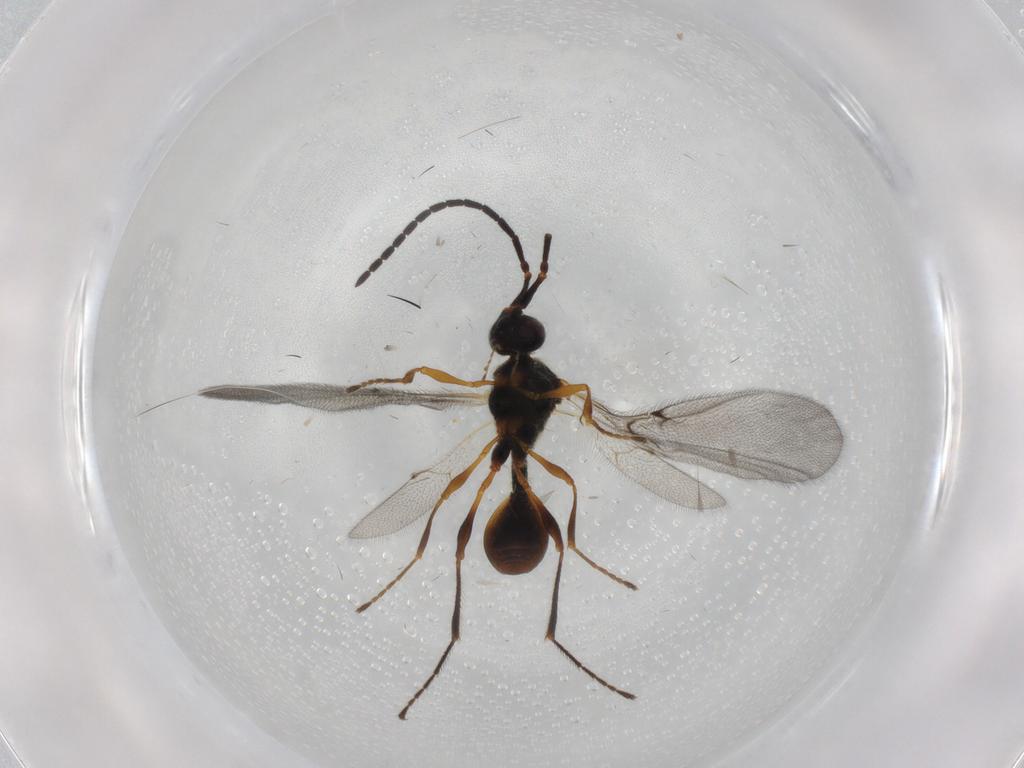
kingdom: Animalia
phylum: Arthropoda
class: Insecta
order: Hymenoptera
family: Diapriidae
